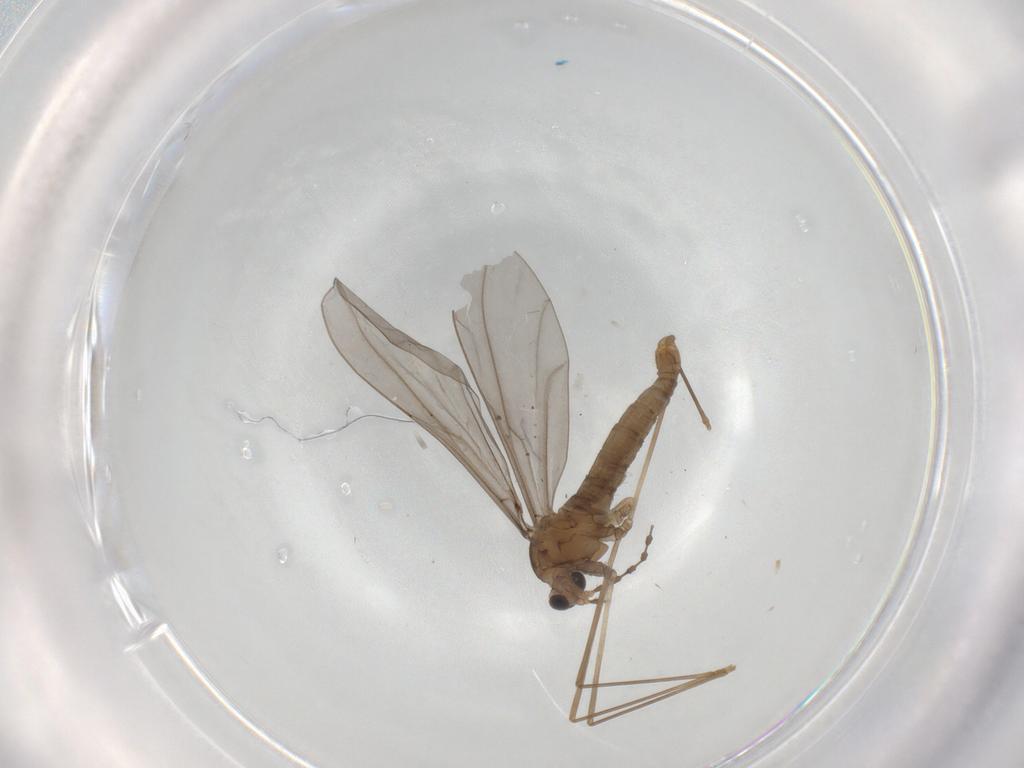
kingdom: Animalia
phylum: Arthropoda
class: Insecta
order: Diptera
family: Cecidomyiidae
